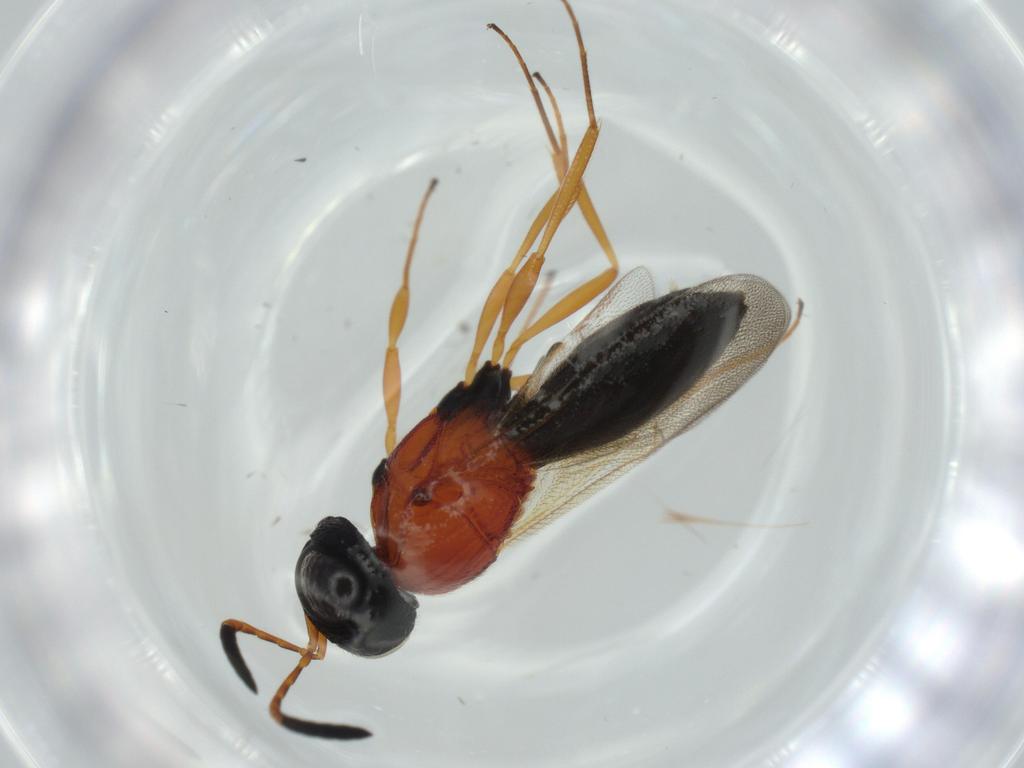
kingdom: Animalia
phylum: Arthropoda
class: Insecta
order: Hymenoptera
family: Scelionidae
